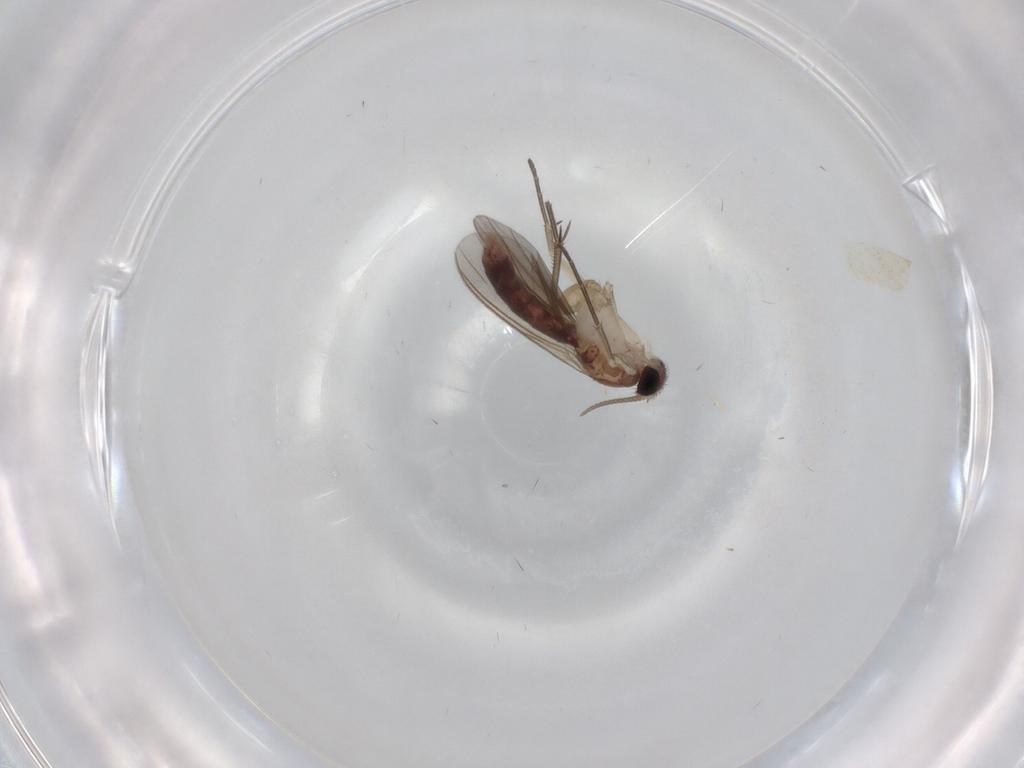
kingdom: Animalia
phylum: Arthropoda
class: Insecta
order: Diptera
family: Mycetophilidae
